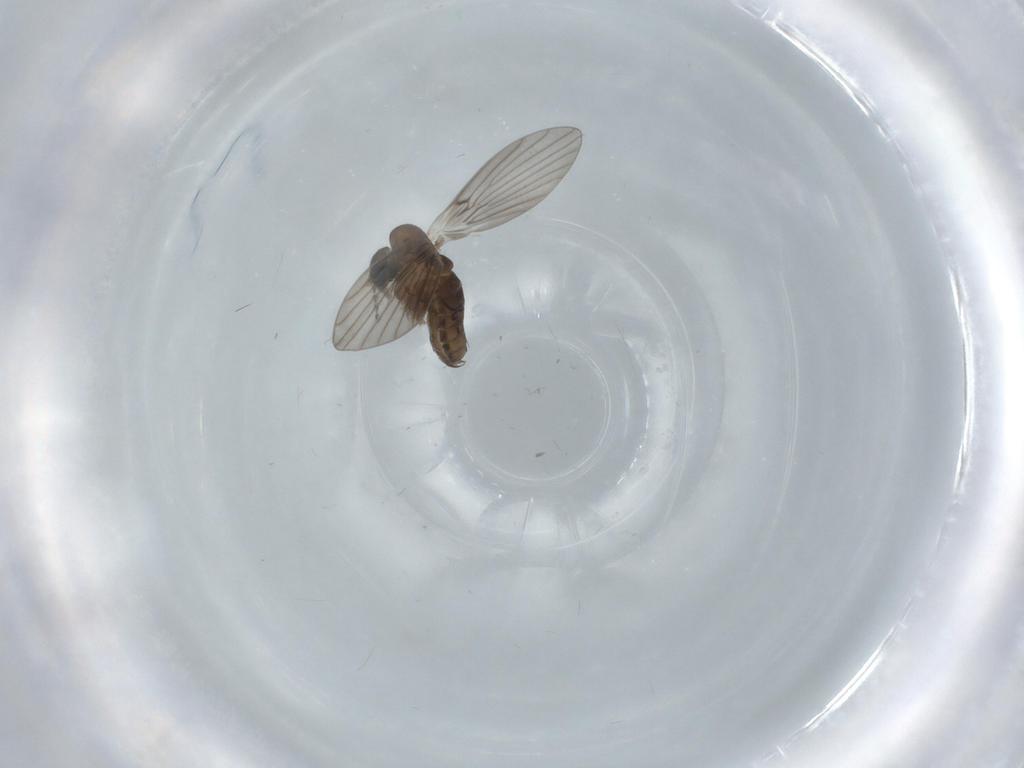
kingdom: Animalia
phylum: Arthropoda
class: Insecta
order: Diptera
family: Psychodidae
